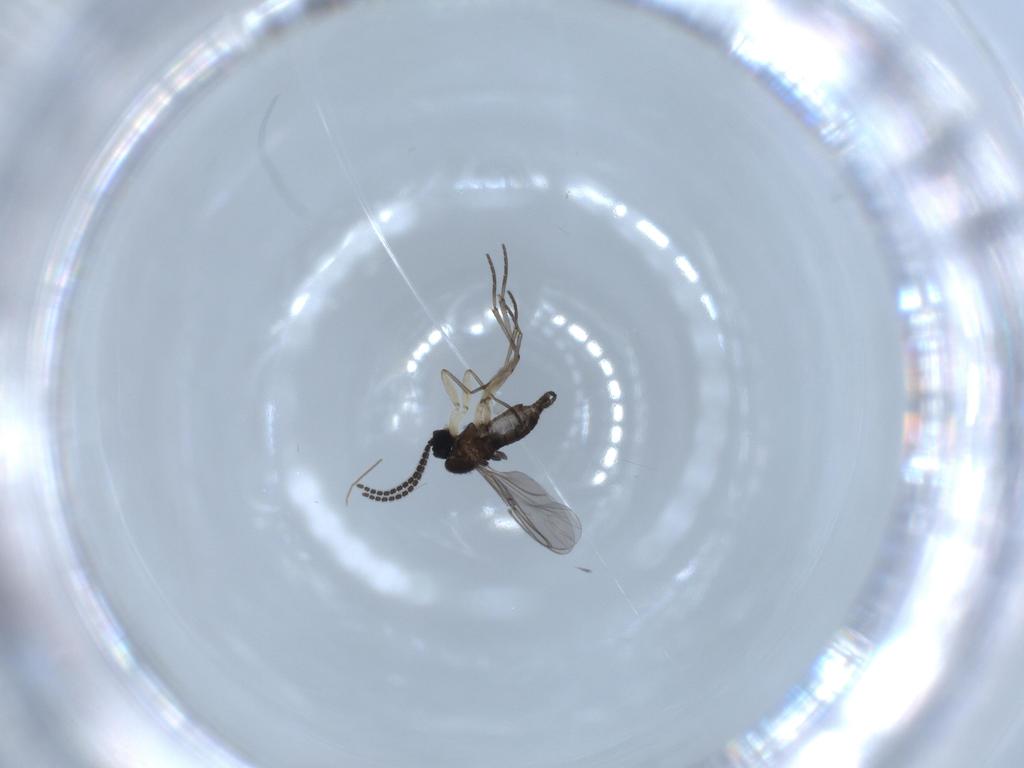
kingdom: Animalia
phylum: Arthropoda
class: Insecta
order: Diptera
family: Sciaridae
